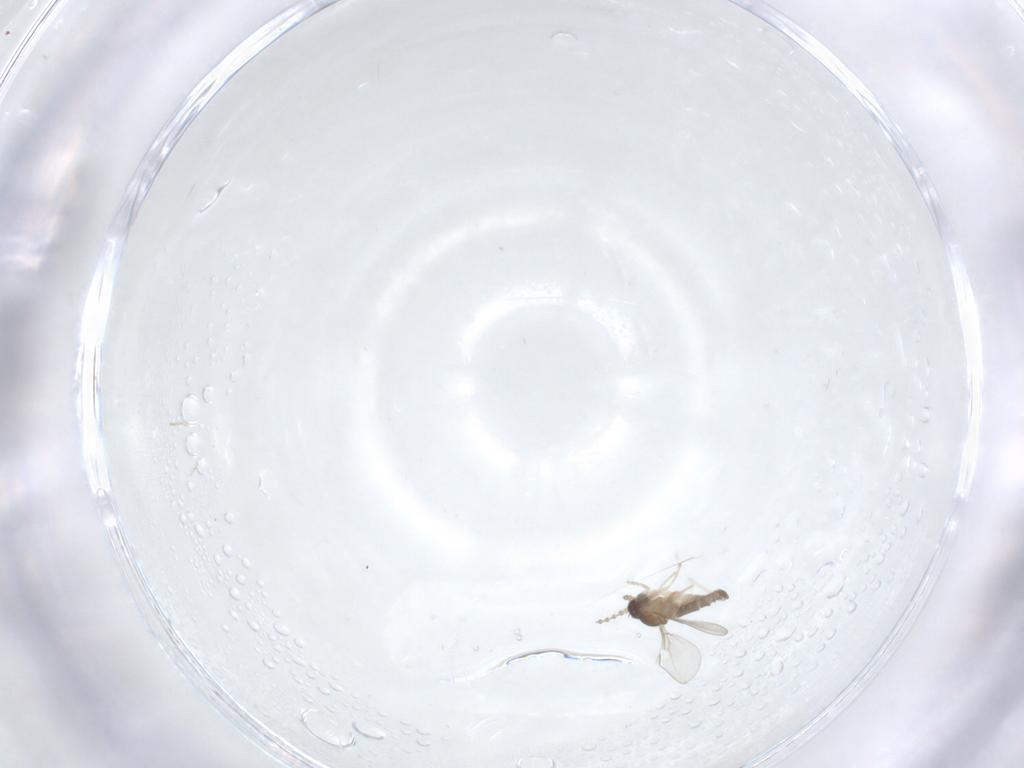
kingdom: Animalia
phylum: Arthropoda
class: Insecta
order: Diptera
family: Cecidomyiidae
